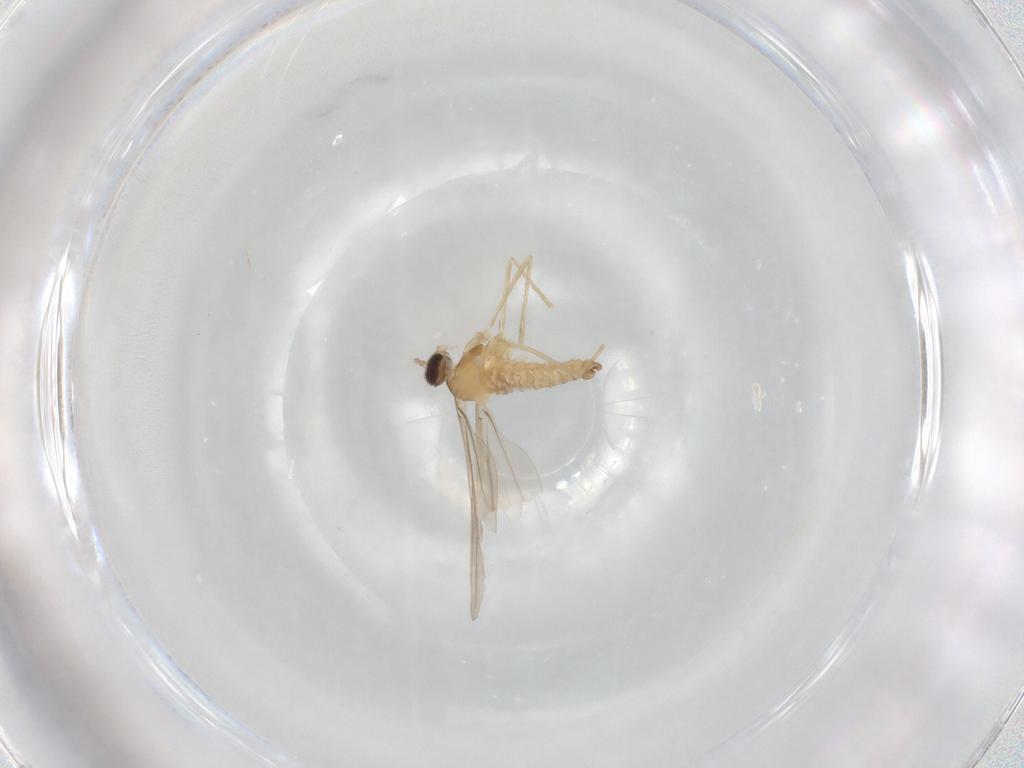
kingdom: Animalia
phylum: Arthropoda
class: Insecta
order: Diptera
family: Cecidomyiidae
